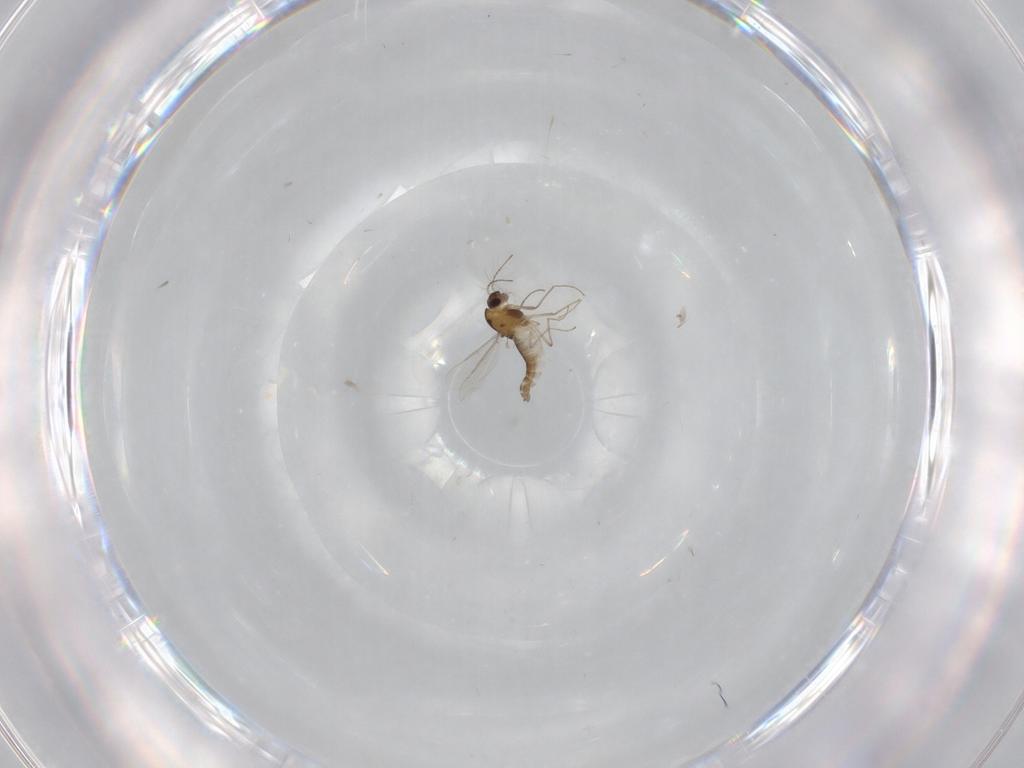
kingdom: Animalia
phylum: Arthropoda
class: Insecta
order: Diptera
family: Chironomidae
